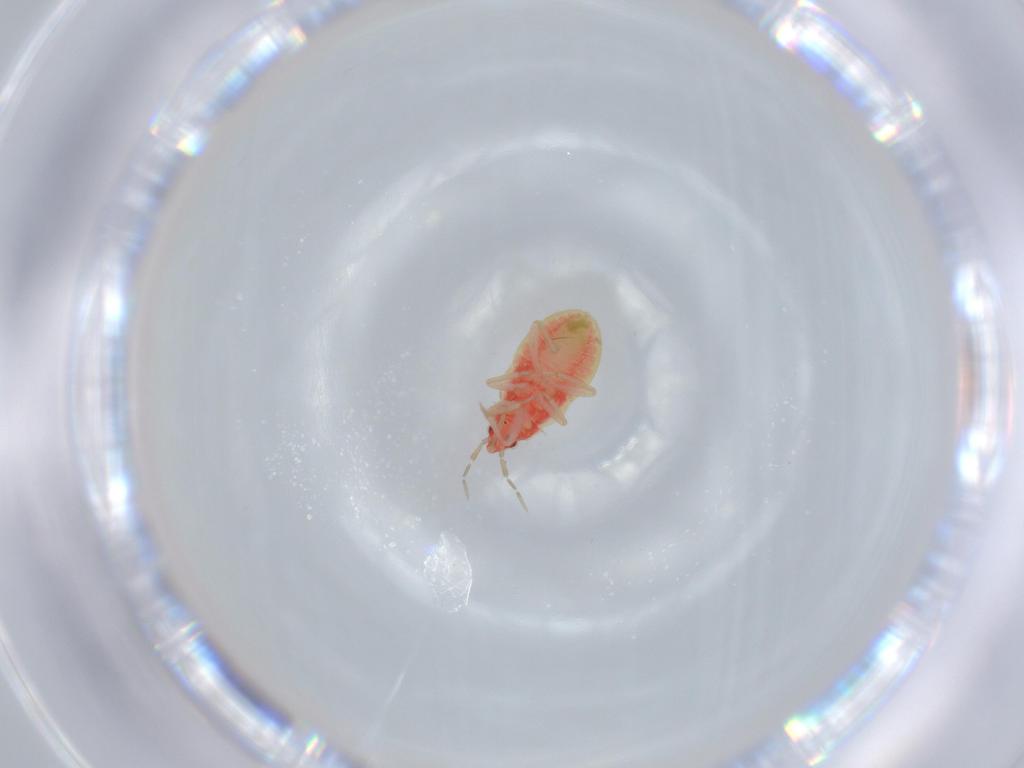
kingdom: Animalia
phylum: Arthropoda
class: Insecta
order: Hemiptera
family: Anthocoridae
